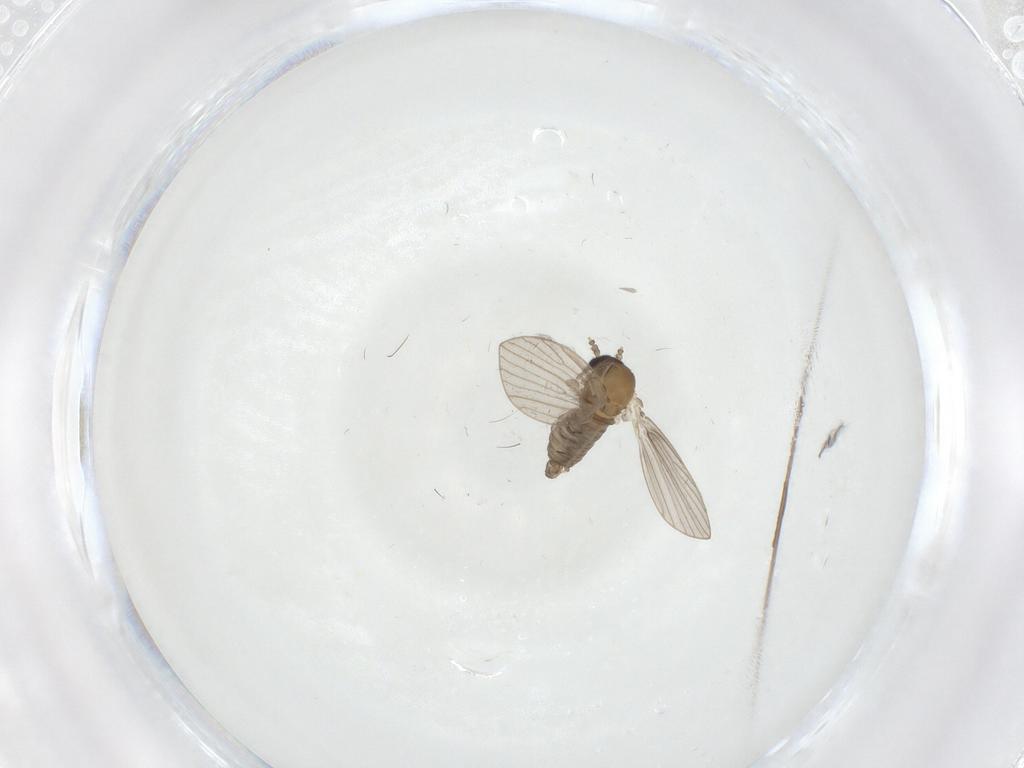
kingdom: Animalia
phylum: Arthropoda
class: Insecta
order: Diptera
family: Psychodidae
